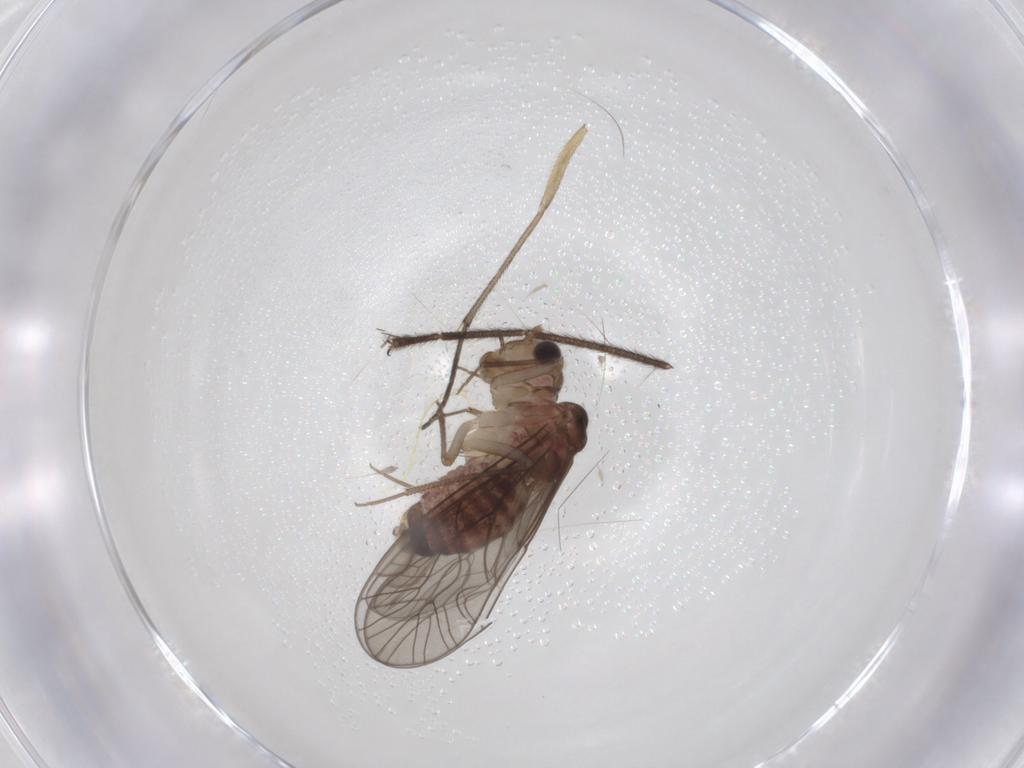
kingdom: Animalia
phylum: Arthropoda
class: Insecta
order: Psocodea
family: Lachesillidae
